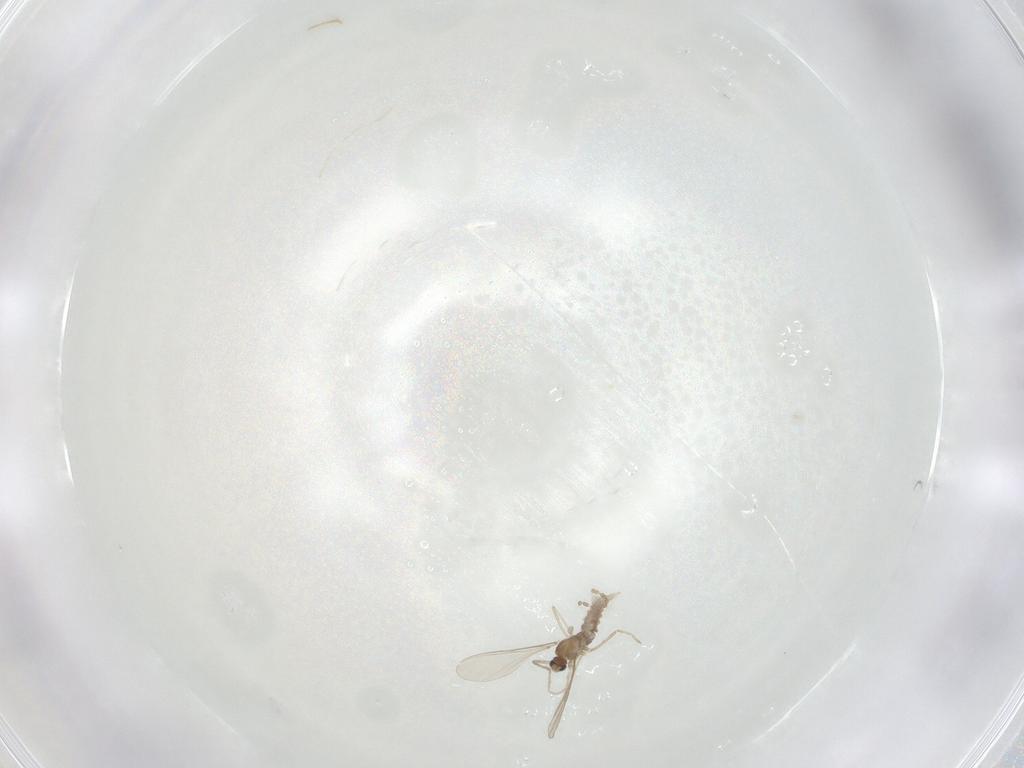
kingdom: Animalia
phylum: Arthropoda
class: Insecta
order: Diptera
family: Cecidomyiidae
